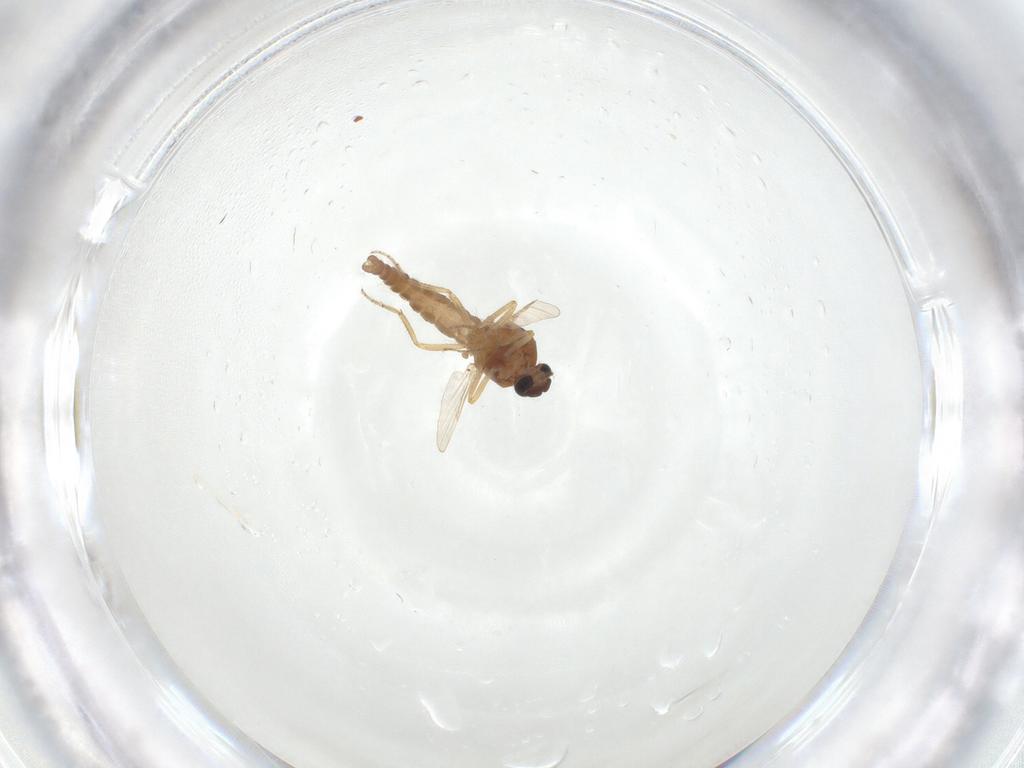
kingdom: Animalia
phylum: Arthropoda
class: Insecta
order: Diptera
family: Ceratopogonidae
